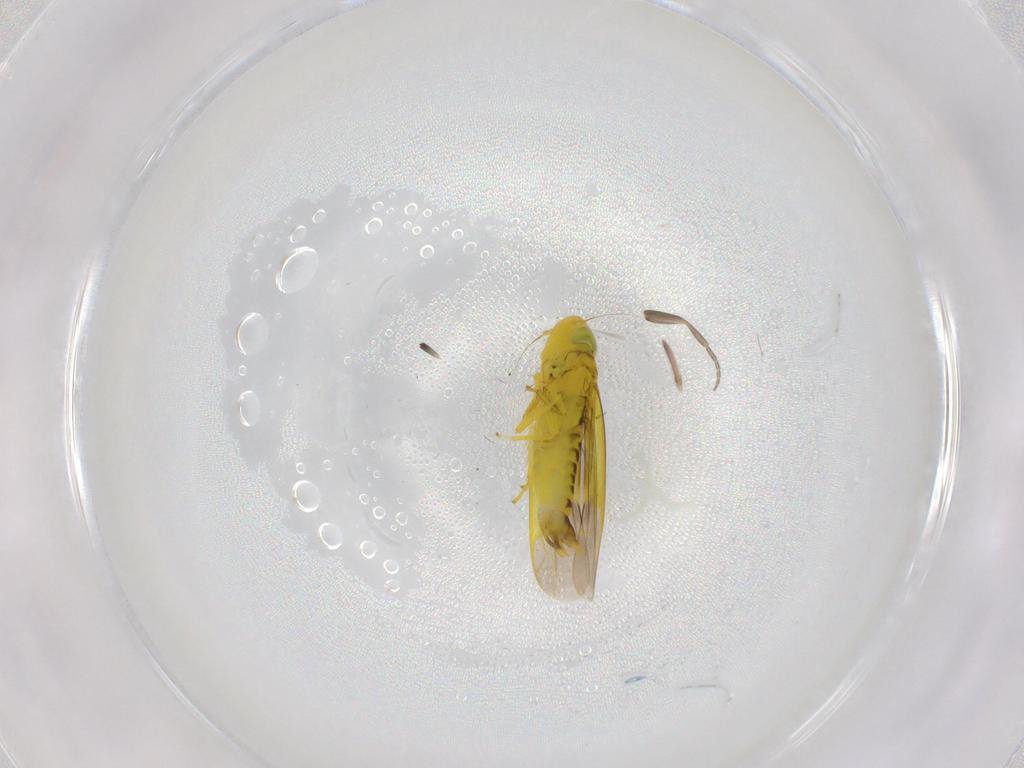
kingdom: Animalia
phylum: Arthropoda
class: Insecta
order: Hemiptera
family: Cicadellidae
